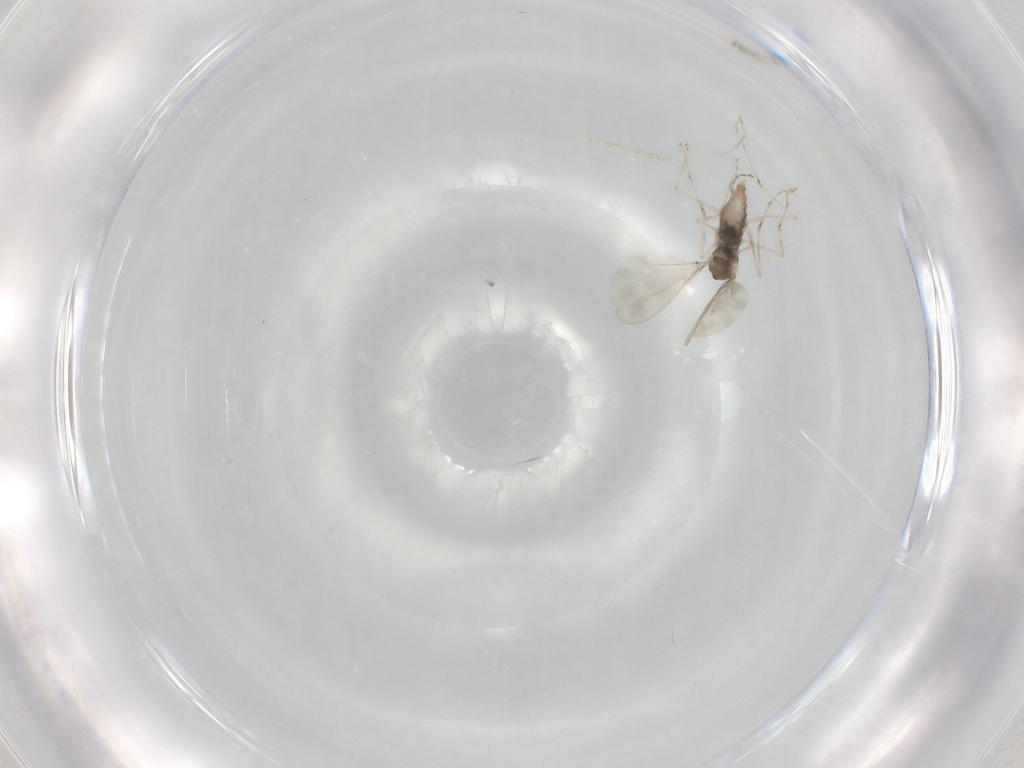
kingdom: Animalia
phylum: Arthropoda
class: Insecta
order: Diptera
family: Cecidomyiidae
